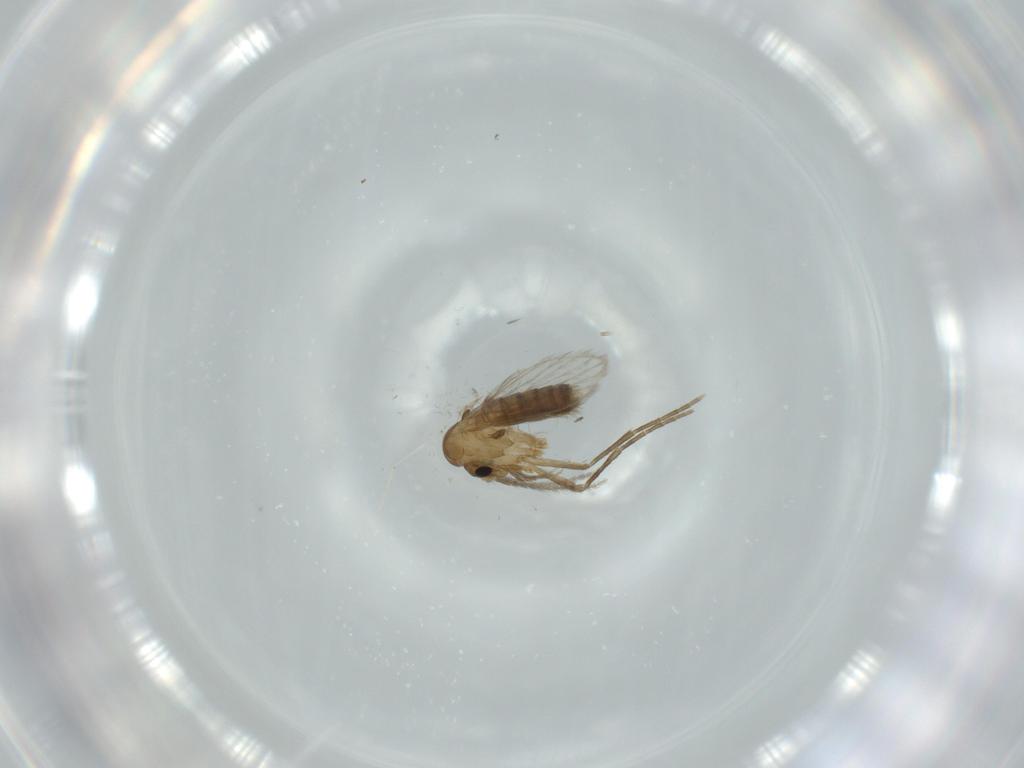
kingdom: Animalia
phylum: Arthropoda
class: Insecta
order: Diptera
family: Psychodidae
